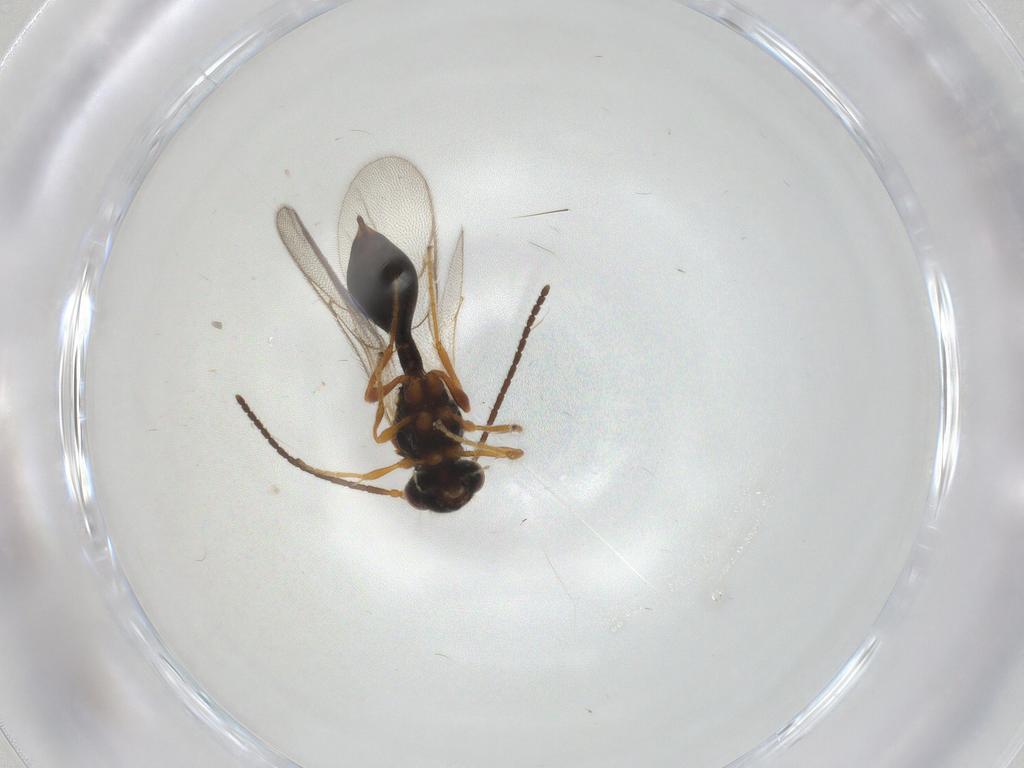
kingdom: Animalia
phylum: Arthropoda
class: Insecta
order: Hymenoptera
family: Diapriidae
